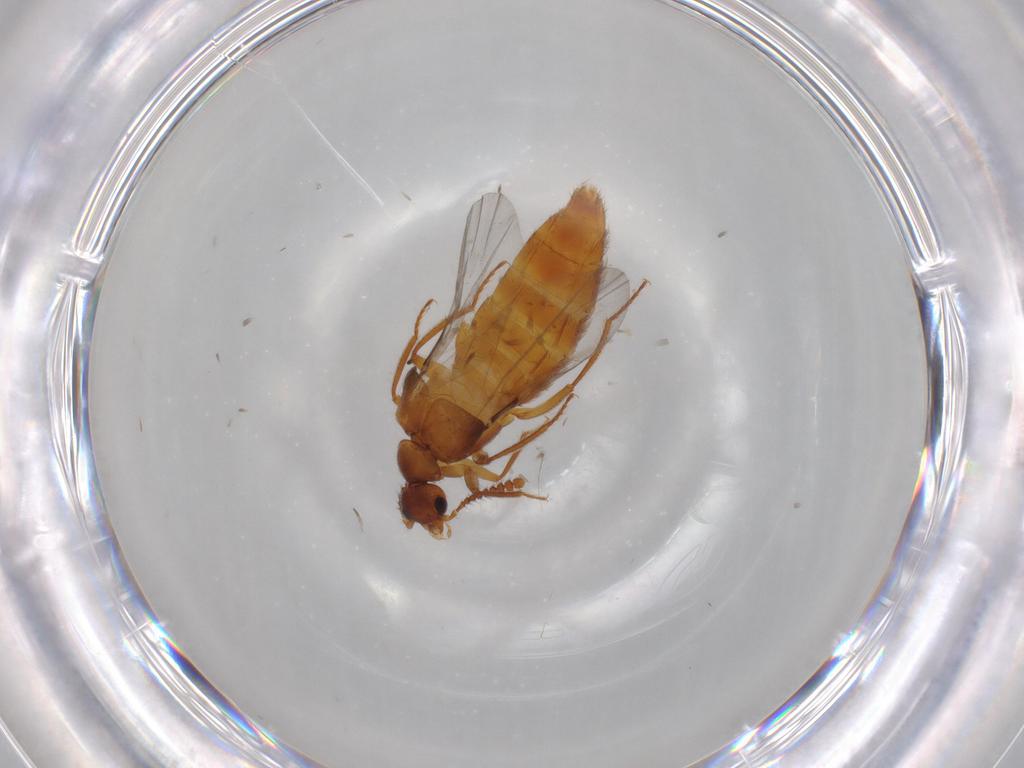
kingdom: Animalia
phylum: Arthropoda
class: Insecta
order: Coleoptera
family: Staphylinidae
